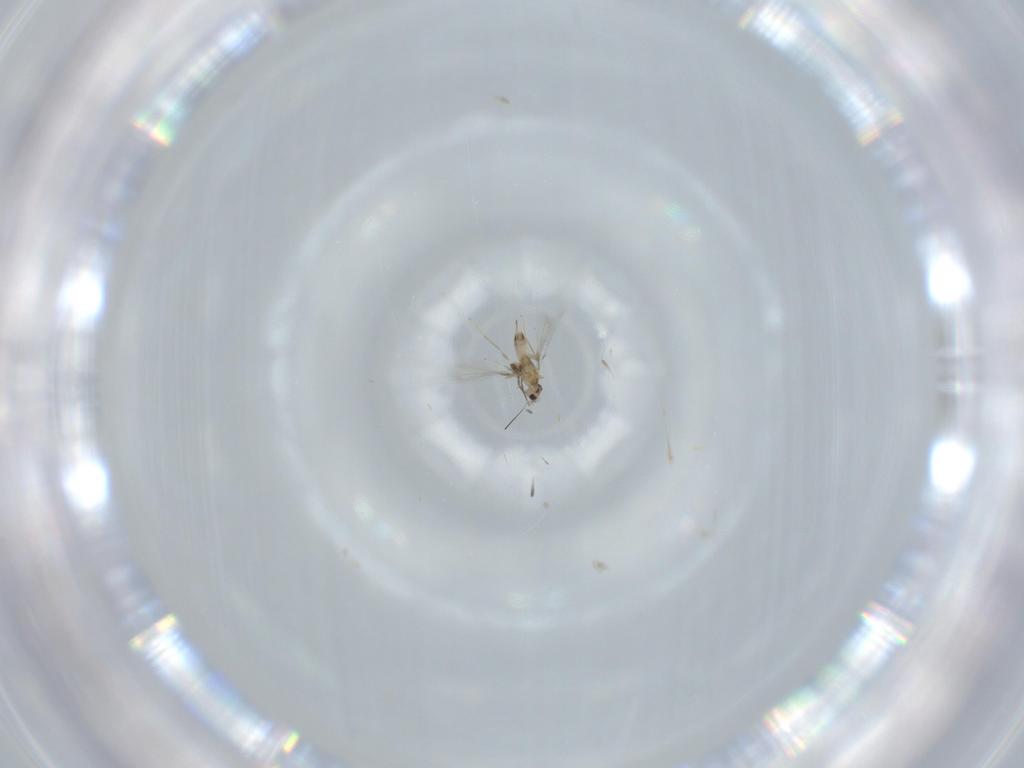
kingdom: Animalia
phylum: Arthropoda
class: Insecta
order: Hymenoptera
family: Mymaridae
